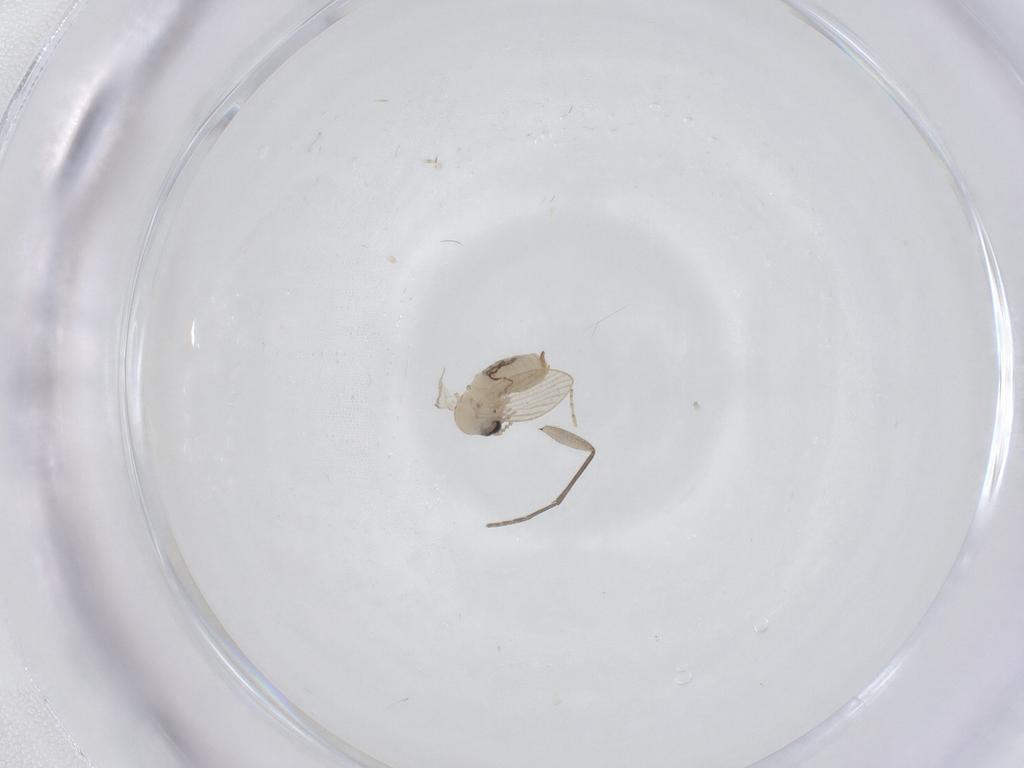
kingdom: Animalia
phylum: Arthropoda
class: Insecta
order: Diptera
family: Psychodidae
